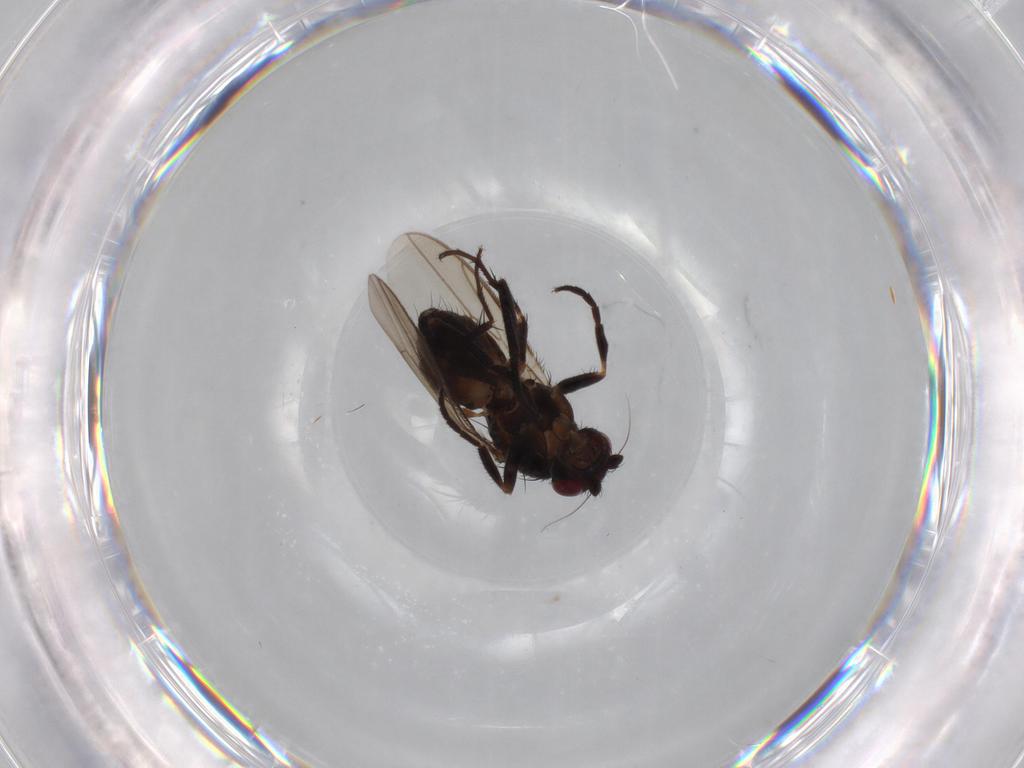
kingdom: Animalia
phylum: Arthropoda
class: Insecta
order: Diptera
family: Sphaeroceridae
